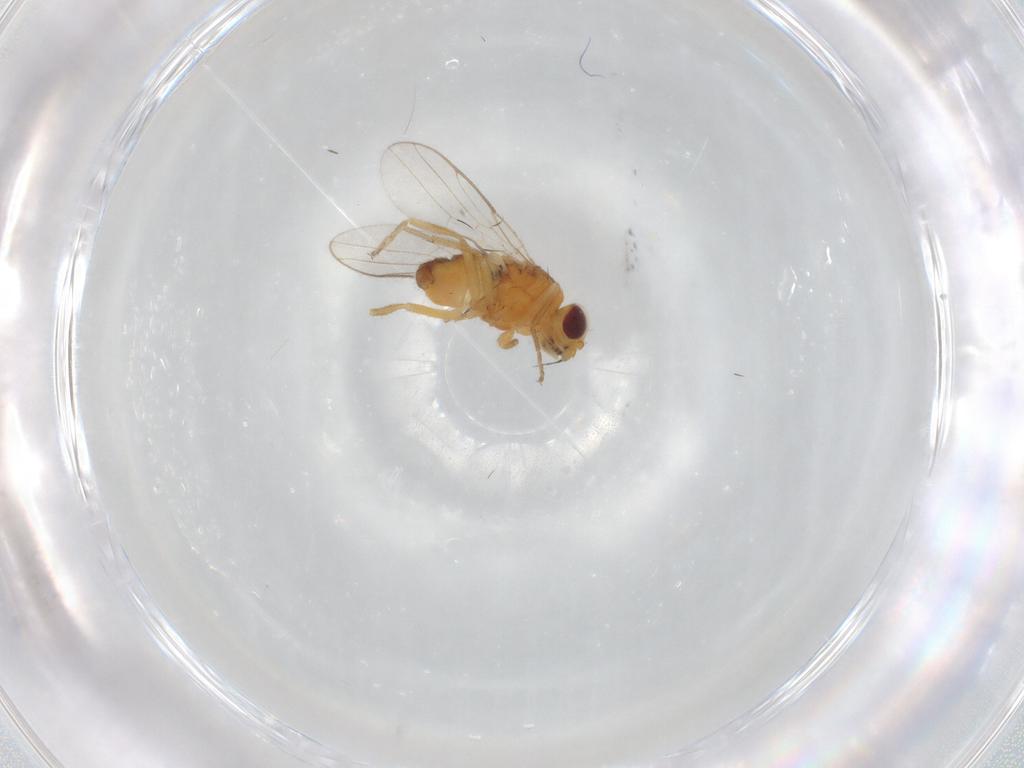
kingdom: Animalia
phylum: Arthropoda
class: Insecta
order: Diptera
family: Chloropidae
